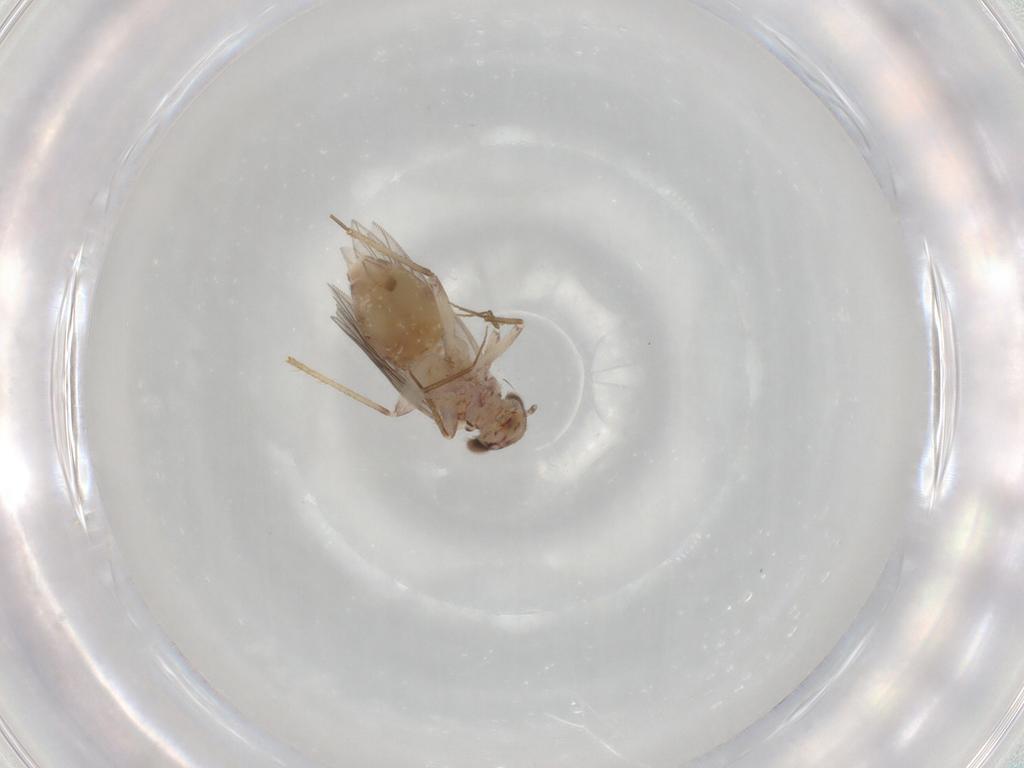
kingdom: Animalia
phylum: Arthropoda
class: Insecta
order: Psocodea
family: Lepidopsocidae
